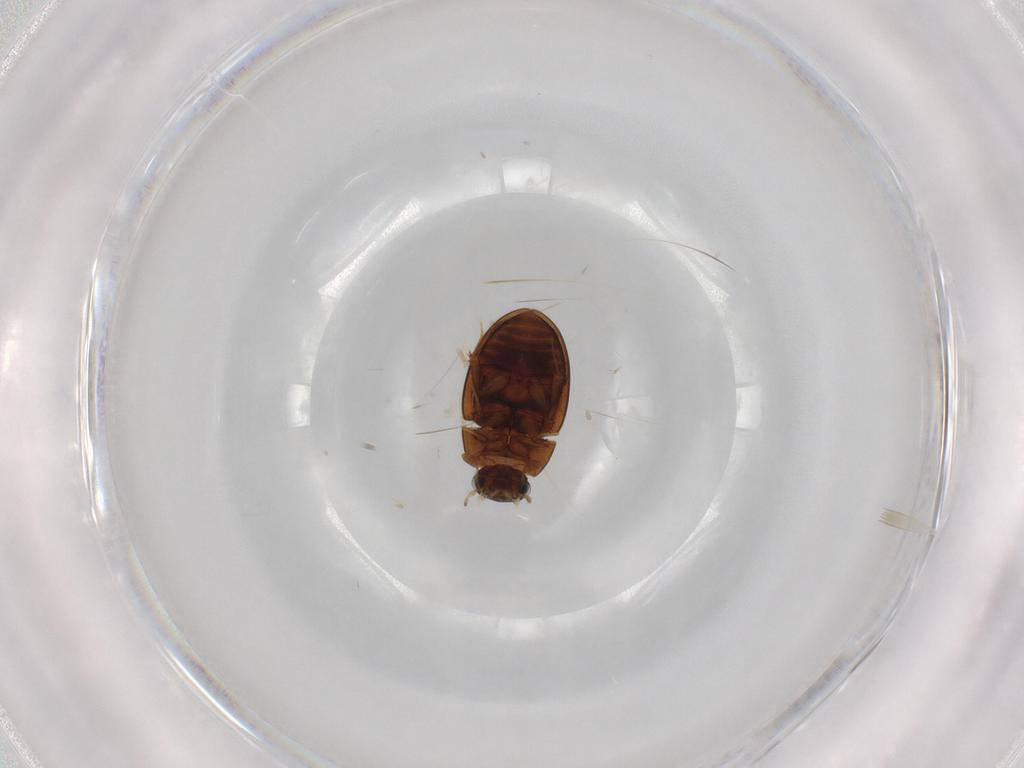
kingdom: Animalia
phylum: Arthropoda
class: Insecta
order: Coleoptera
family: Hydrophilidae
